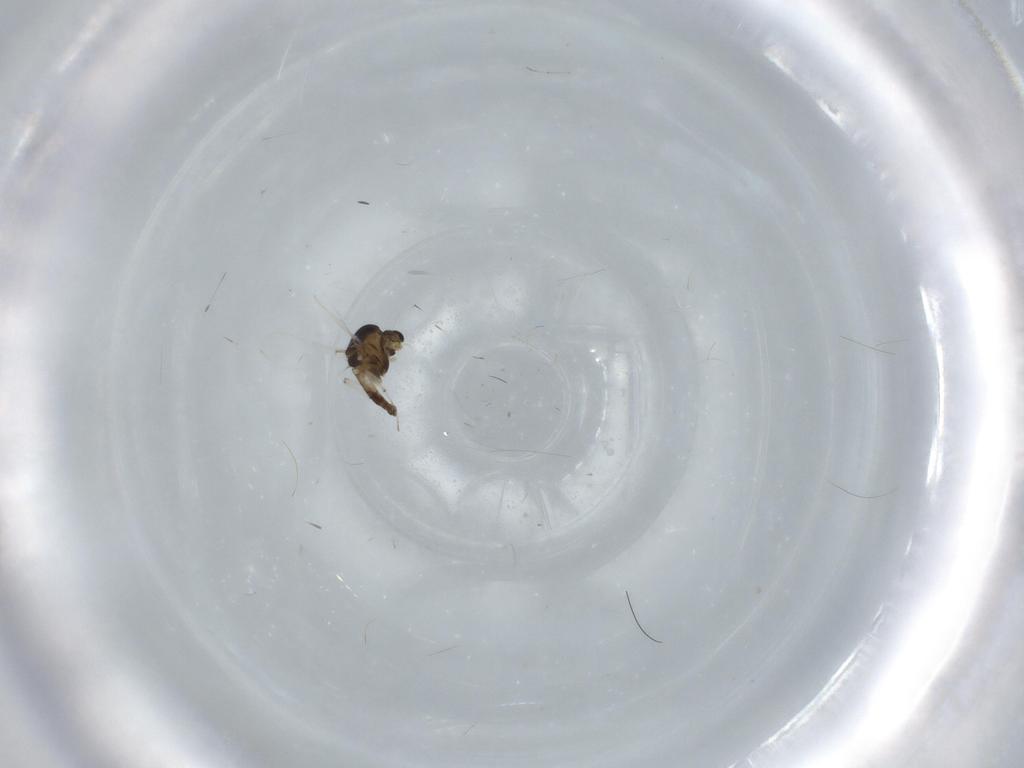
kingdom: Animalia
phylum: Arthropoda
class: Insecta
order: Diptera
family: Chironomidae
